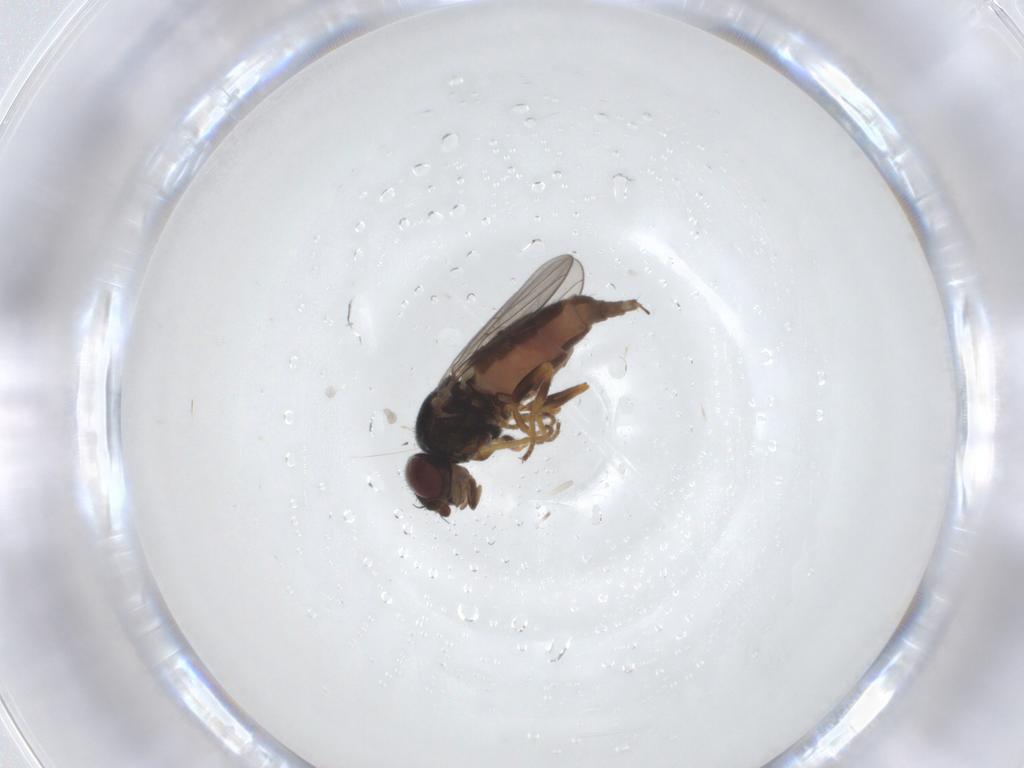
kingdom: Animalia
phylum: Arthropoda
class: Insecta
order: Diptera
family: Chloropidae
